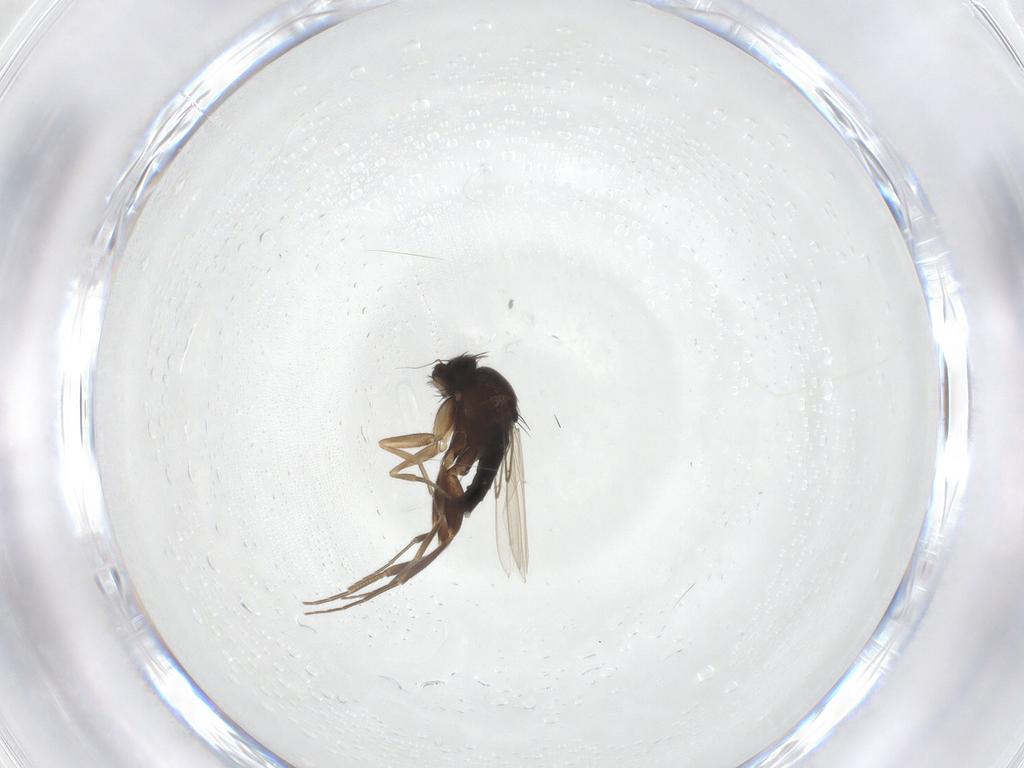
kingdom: Animalia
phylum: Arthropoda
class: Insecta
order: Diptera
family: Phoridae
